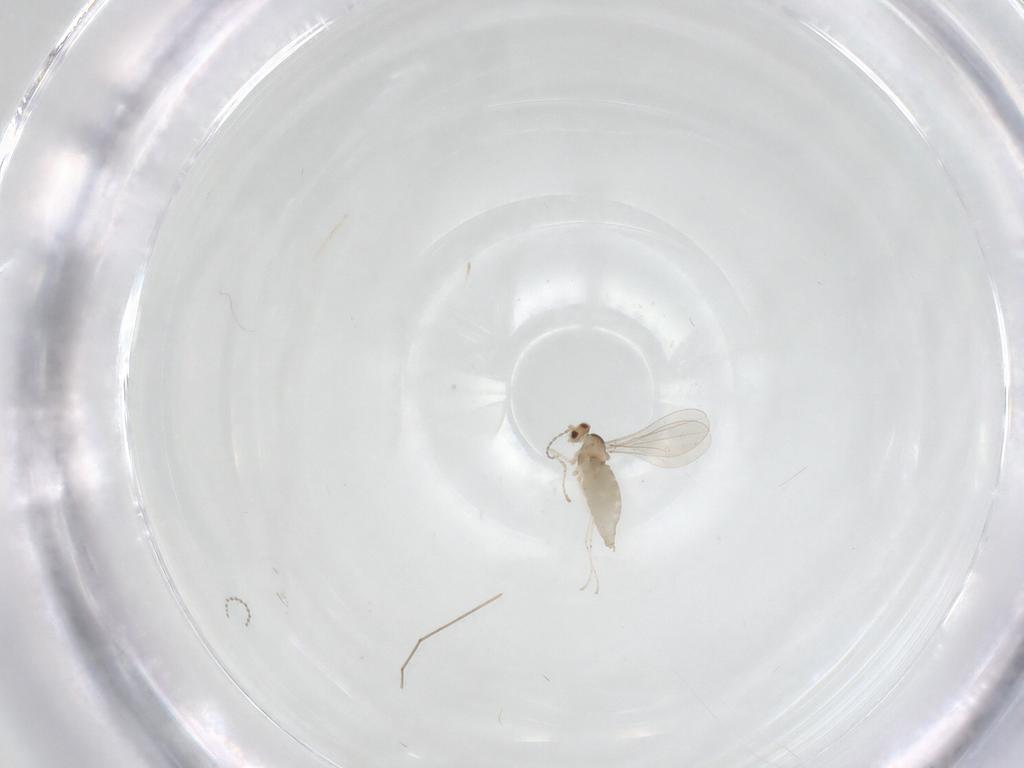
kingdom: Animalia
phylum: Arthropoda
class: Insecta
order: Diptera
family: Cecidomyiidae
